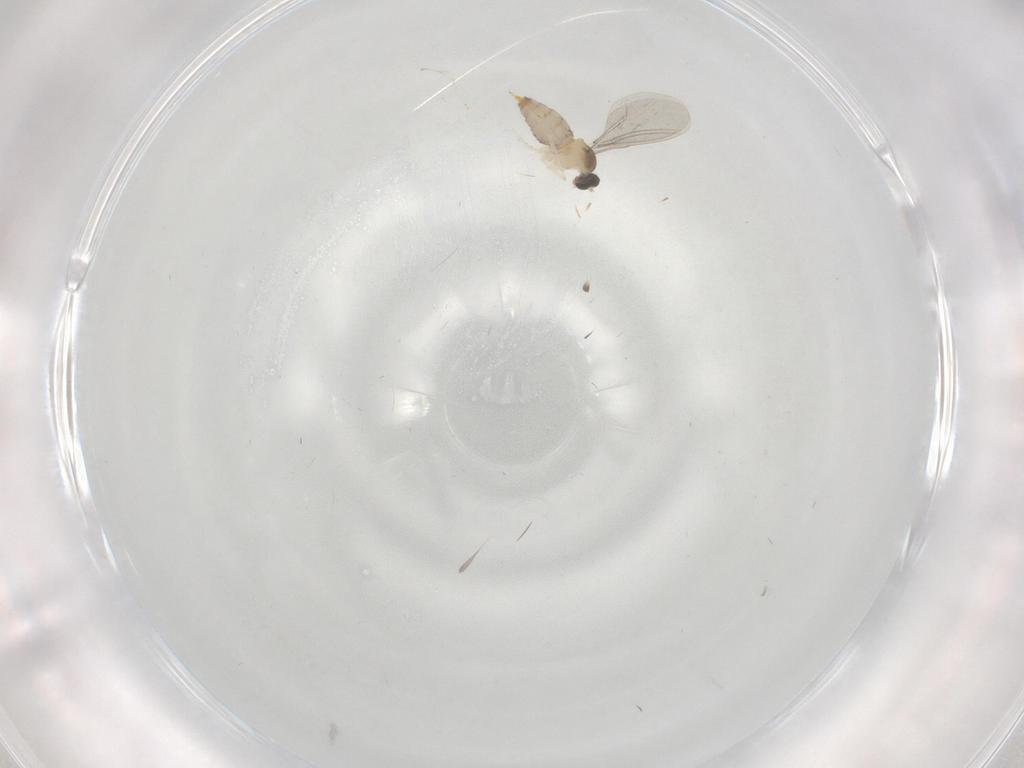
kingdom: Animalia
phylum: Arthropoda
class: Insecta
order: Diptera
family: Cecidomyiidae
